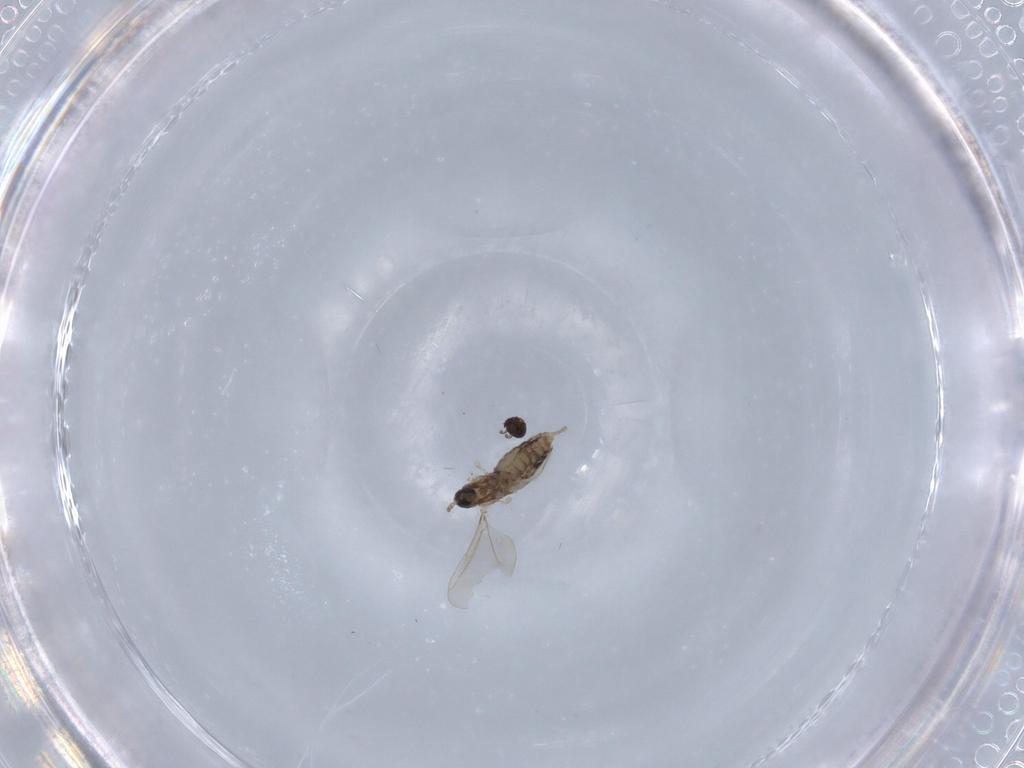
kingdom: Animalia
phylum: Arthropoda
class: Insecta
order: Diptera
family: Cecidomyiidae
